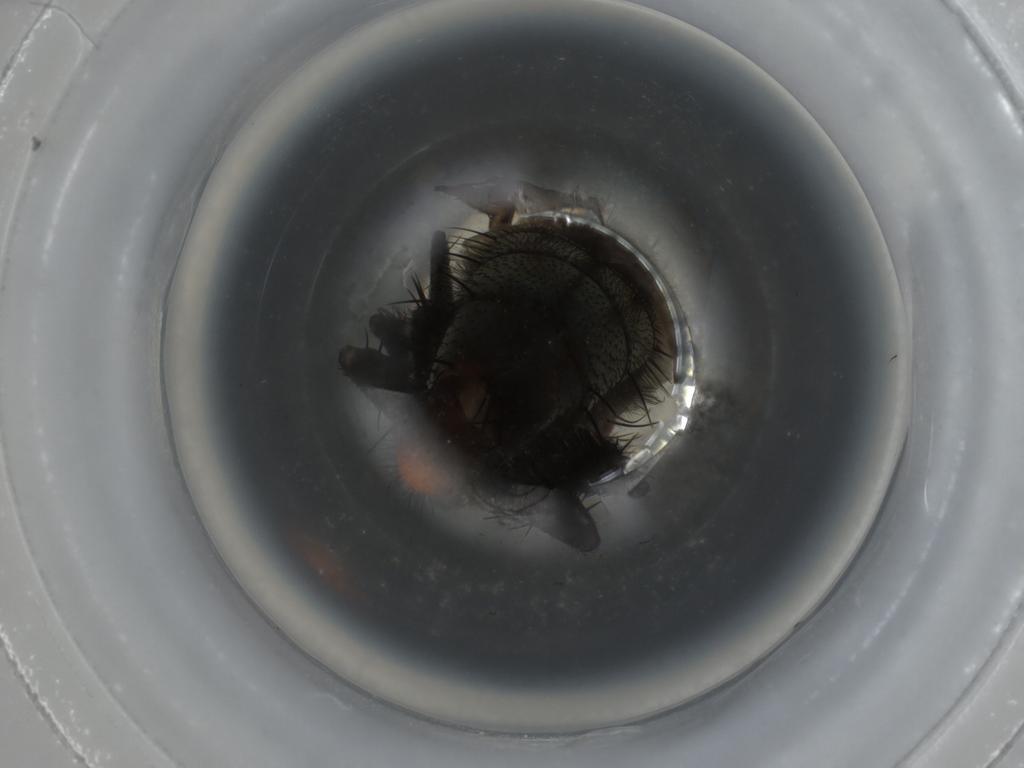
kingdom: Animalia
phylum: Arthropoda
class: Insecta
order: Diptera
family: Sarcophagidae
